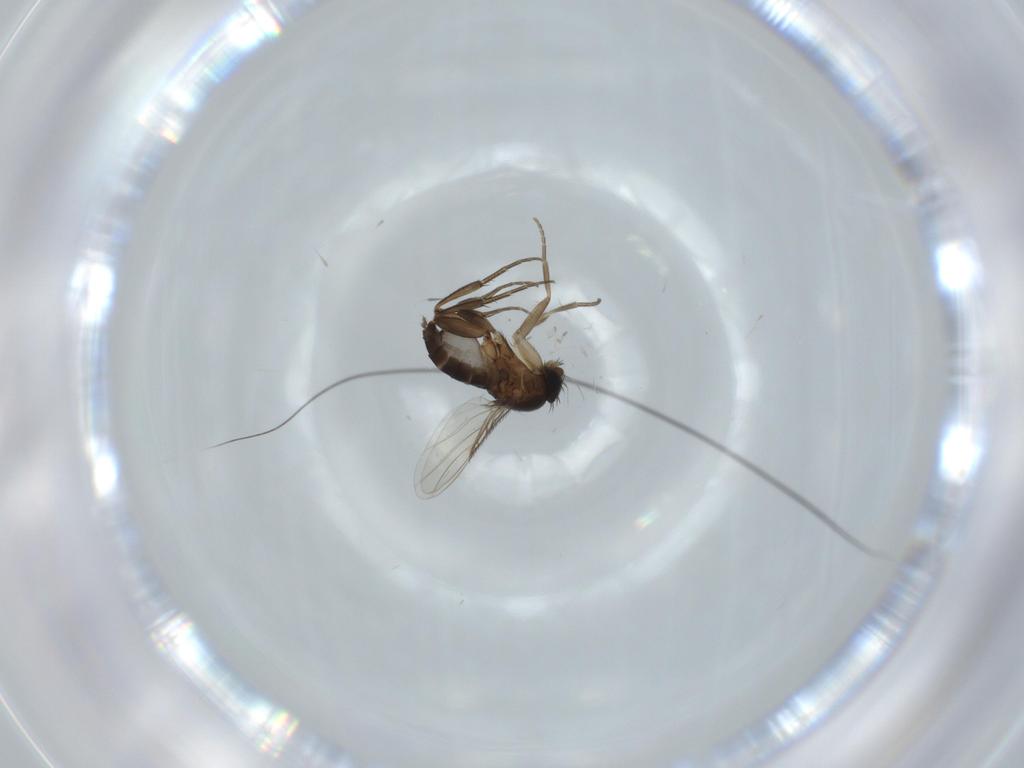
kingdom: Animalia
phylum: Arthropoda
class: Insecta
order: Diptera
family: Phoridae
